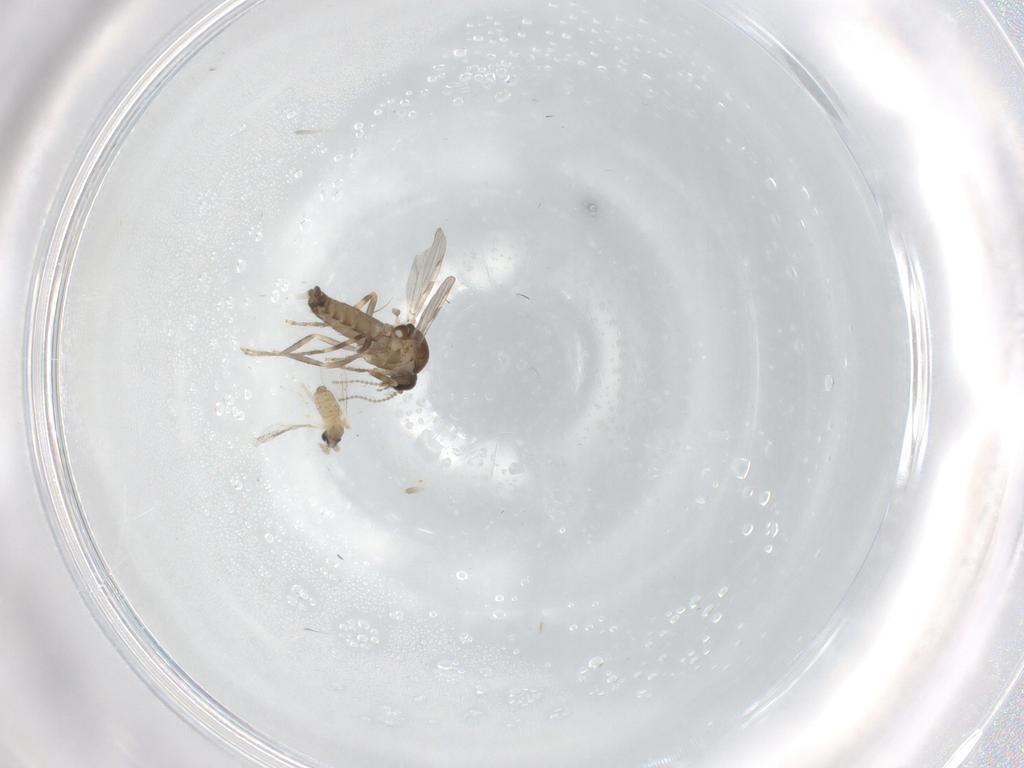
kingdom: Animalia
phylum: Arthropoda
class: Insecta
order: Diptera
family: Ceratopogonidae
